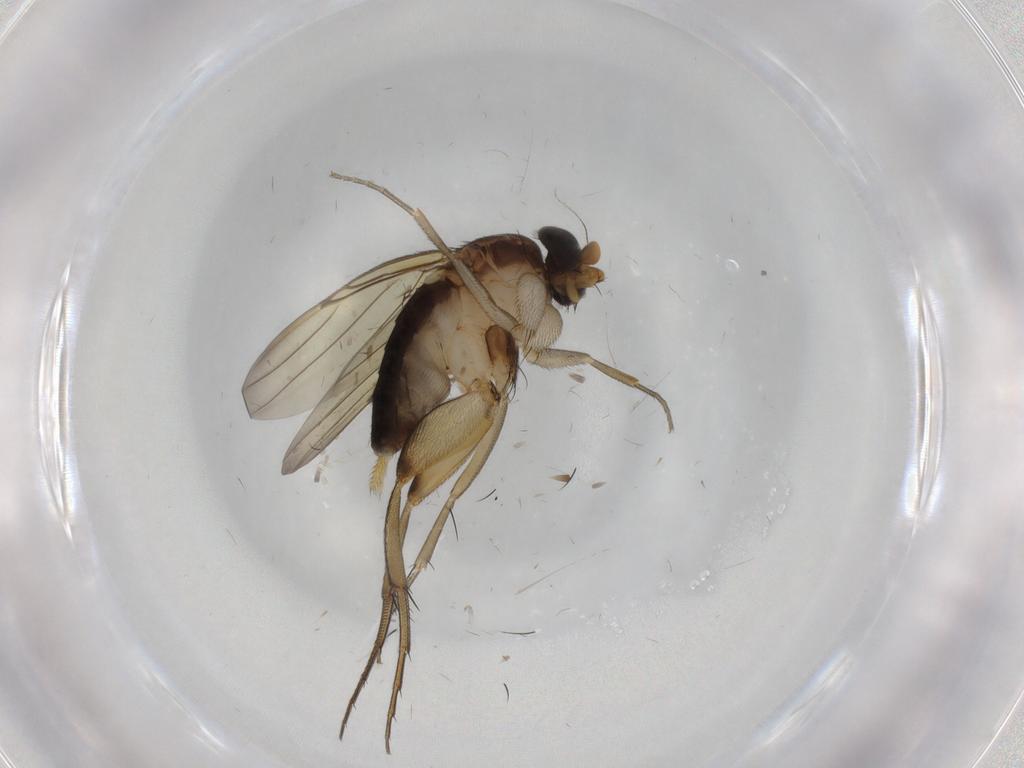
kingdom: Animalia
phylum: Arthropoda
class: Insecta
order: Diptera
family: Phoridae
